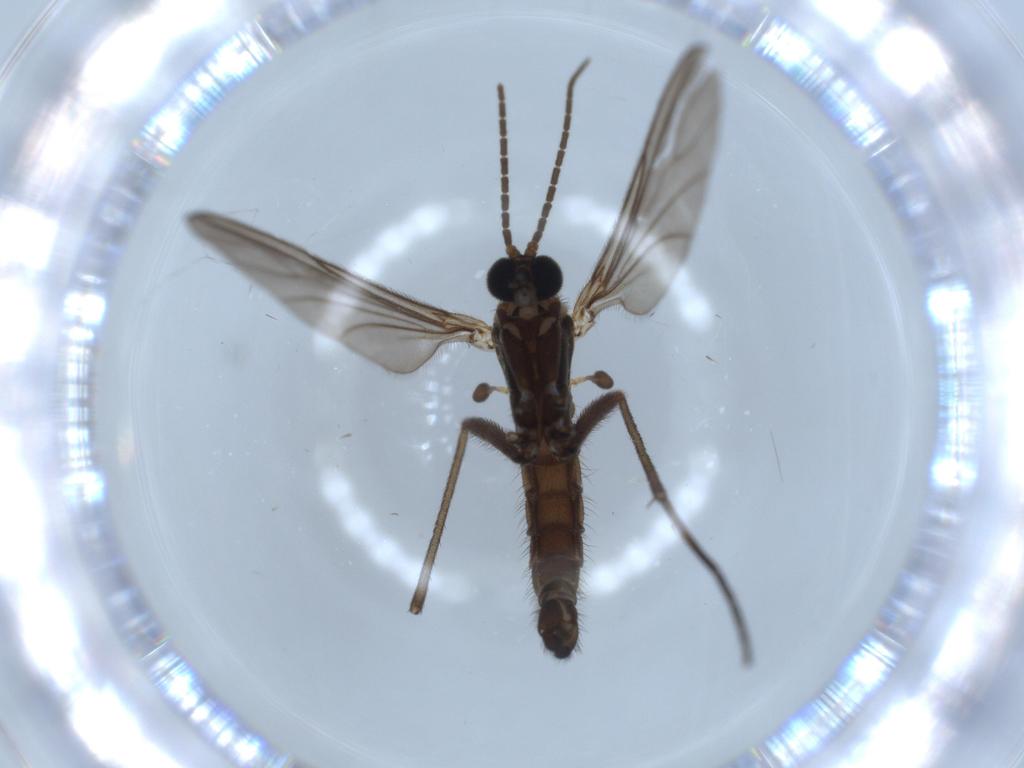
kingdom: Animalia
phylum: Arthropoda
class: Insecta
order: Diptera
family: Sciaridae
